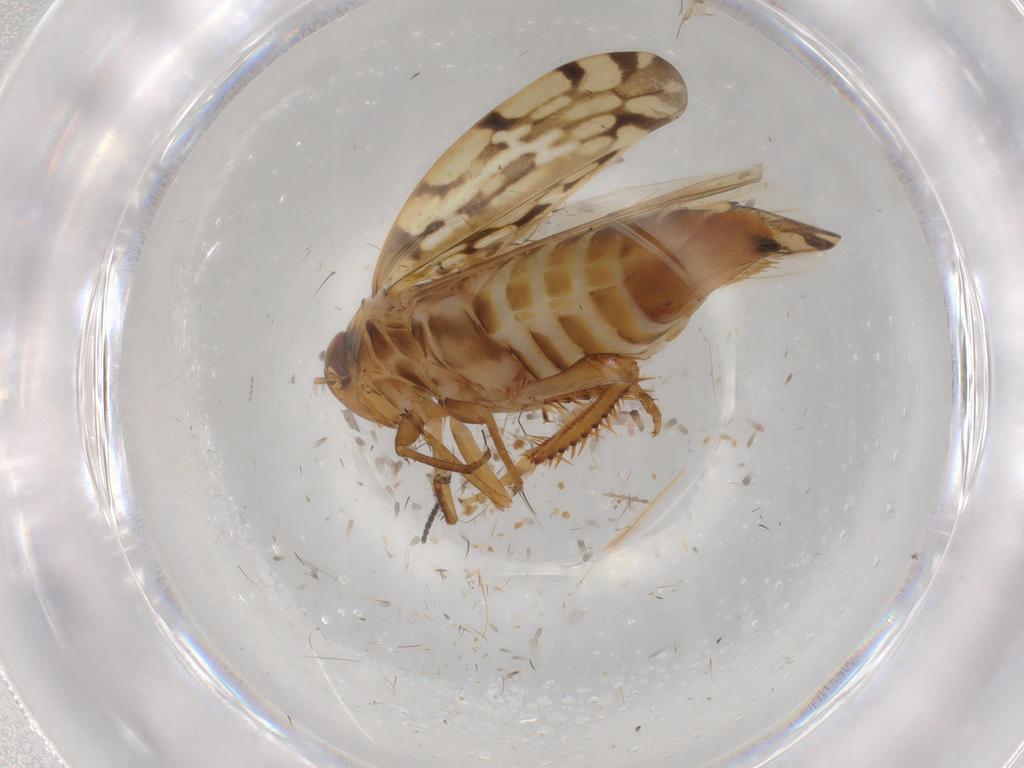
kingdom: Animalia
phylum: Arthropoda
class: Insecta
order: Hemiptera
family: Cicadellidae
